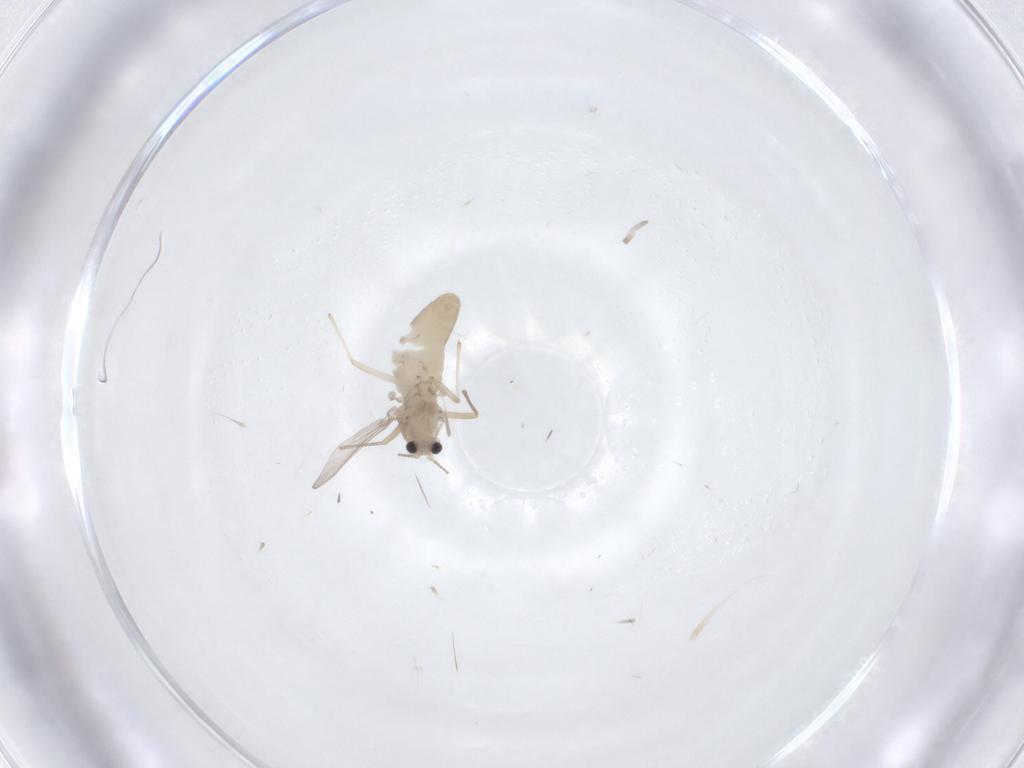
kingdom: Animalia
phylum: Arthropoda
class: Insecta
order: Diptera
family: Chironomidae
